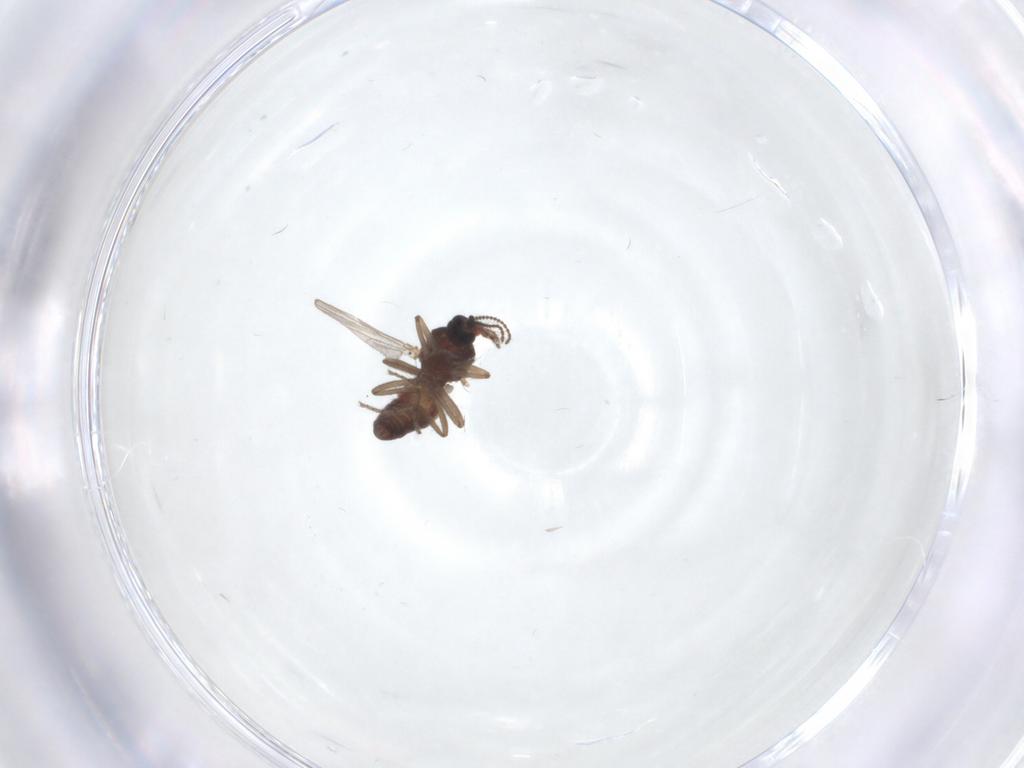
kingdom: Animalia
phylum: Arthropoda
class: Insecta
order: Diptera
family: Ceratopogonidae
